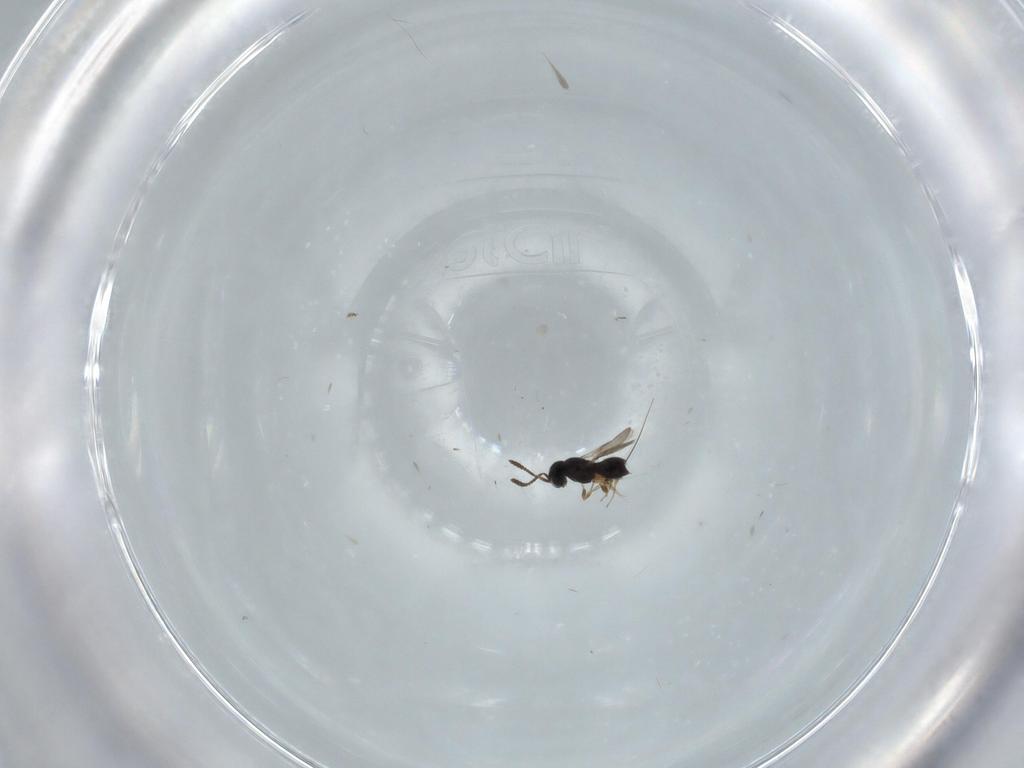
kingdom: Animalia
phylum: Arthropoda
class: Insecta
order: Hymenoptera
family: Scelionidae
